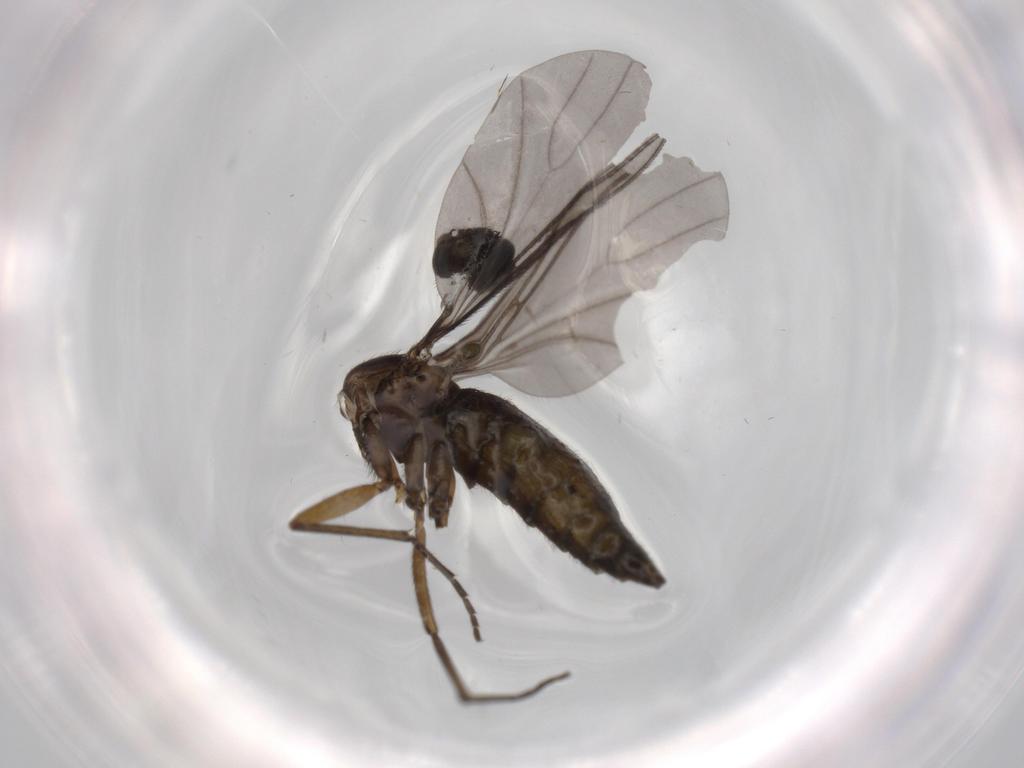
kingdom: Animalia
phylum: Arthropoda
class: Insecta
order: Diptera
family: Sciaridae
